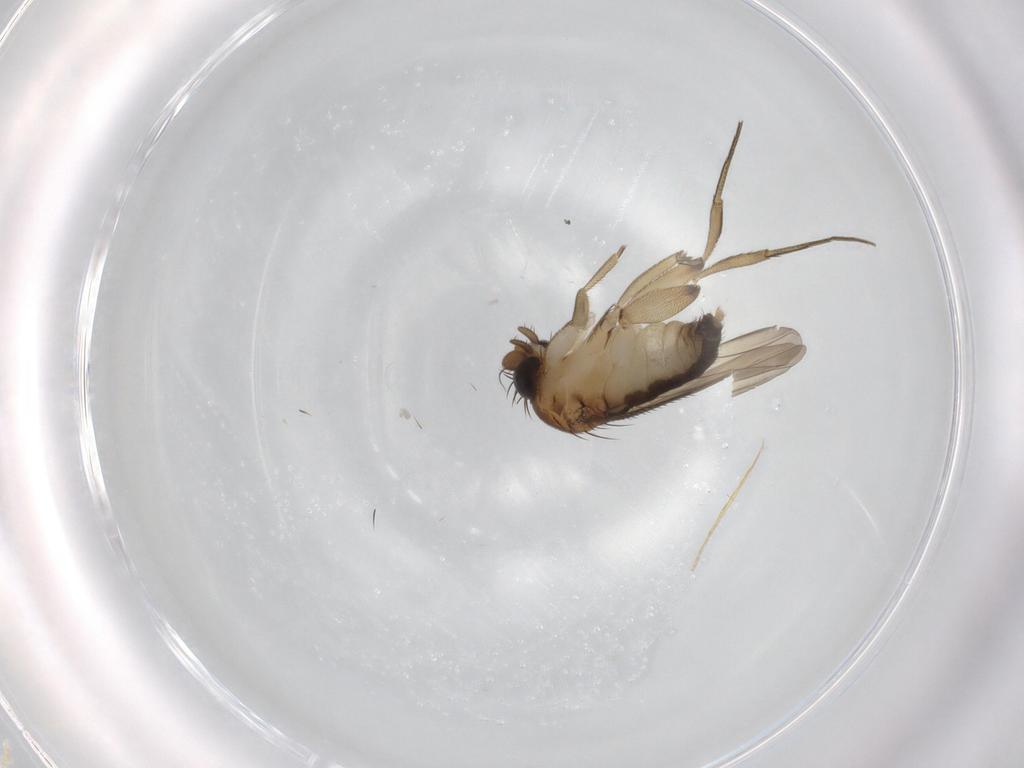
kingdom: Animalia
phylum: Arthropoda
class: Insecta
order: Diptera
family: Phoridae
